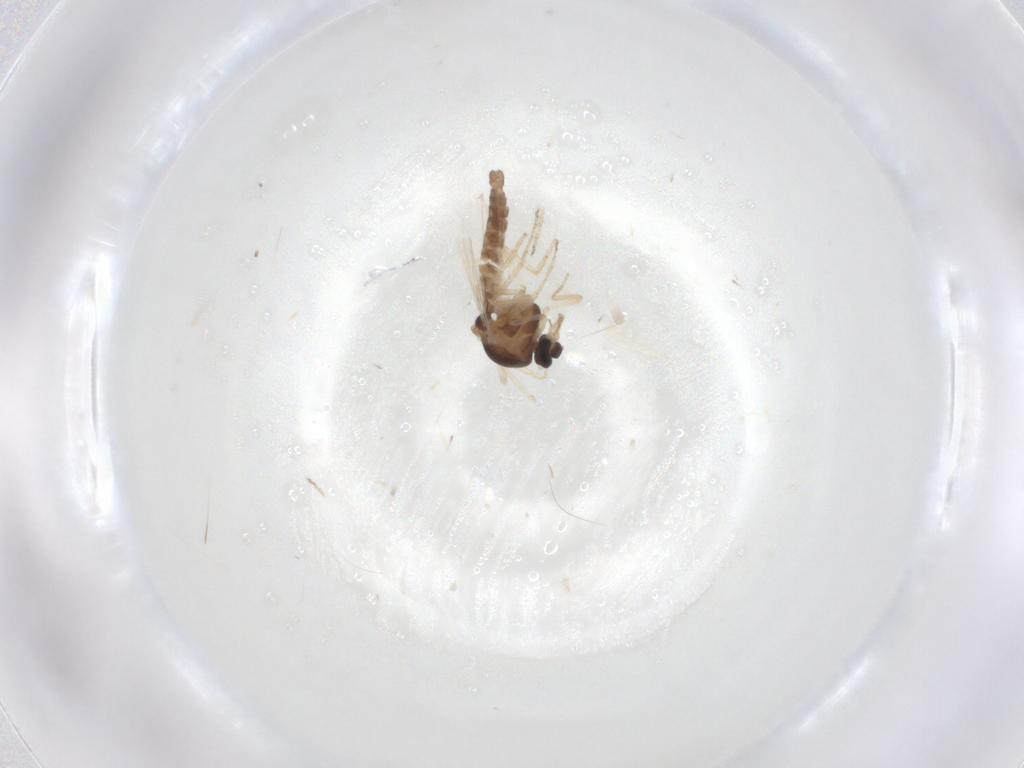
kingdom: Animalia
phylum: Arthropoda
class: Insecta
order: Diptera
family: Ceratopogonidae
